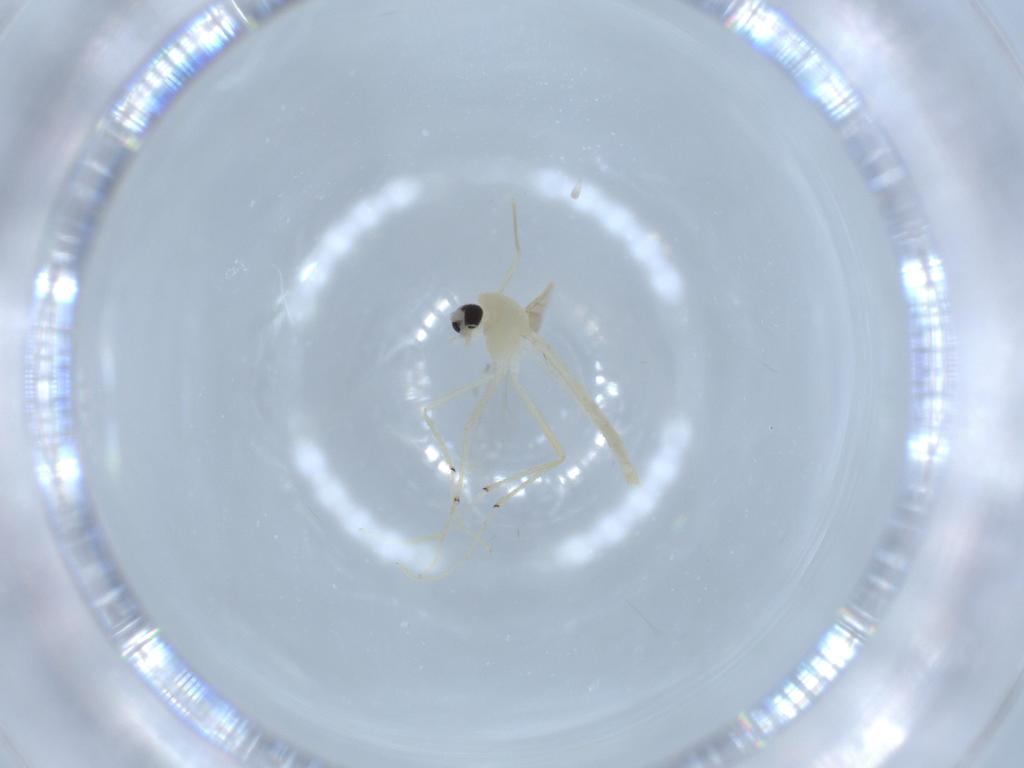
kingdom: Animalia
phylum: Arthropoda
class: Insecta
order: Diptera
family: Chironomidae
